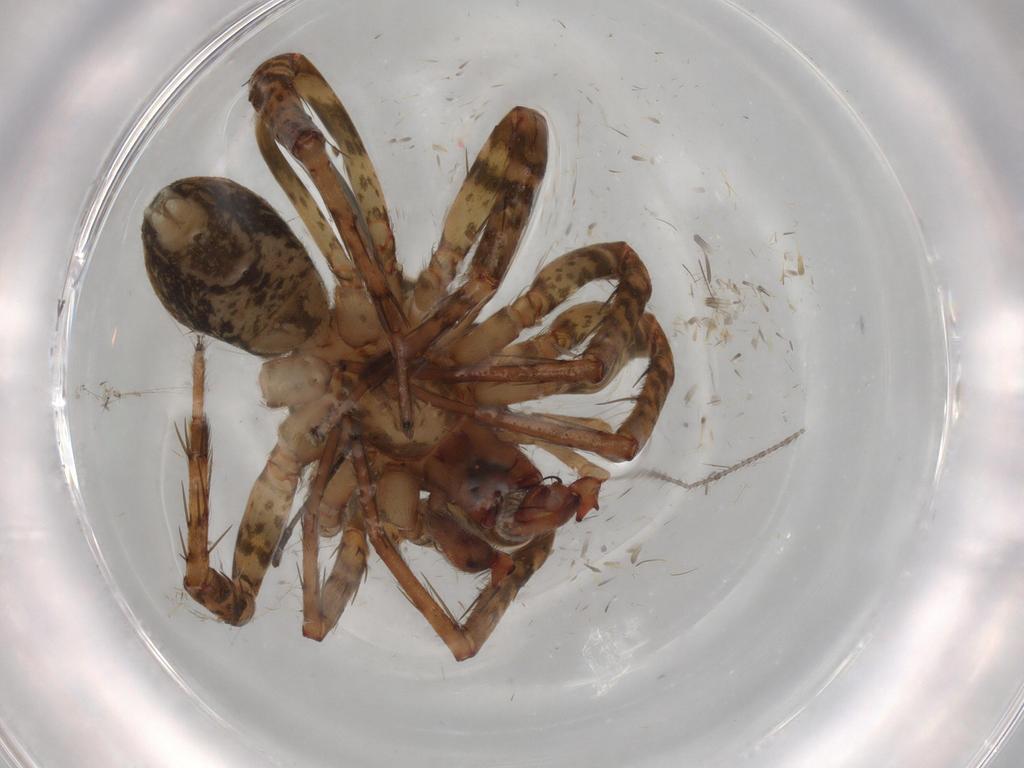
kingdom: Animalia
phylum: Arthropoda
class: Arachnida
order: Araneae
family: Anyphaenidae
